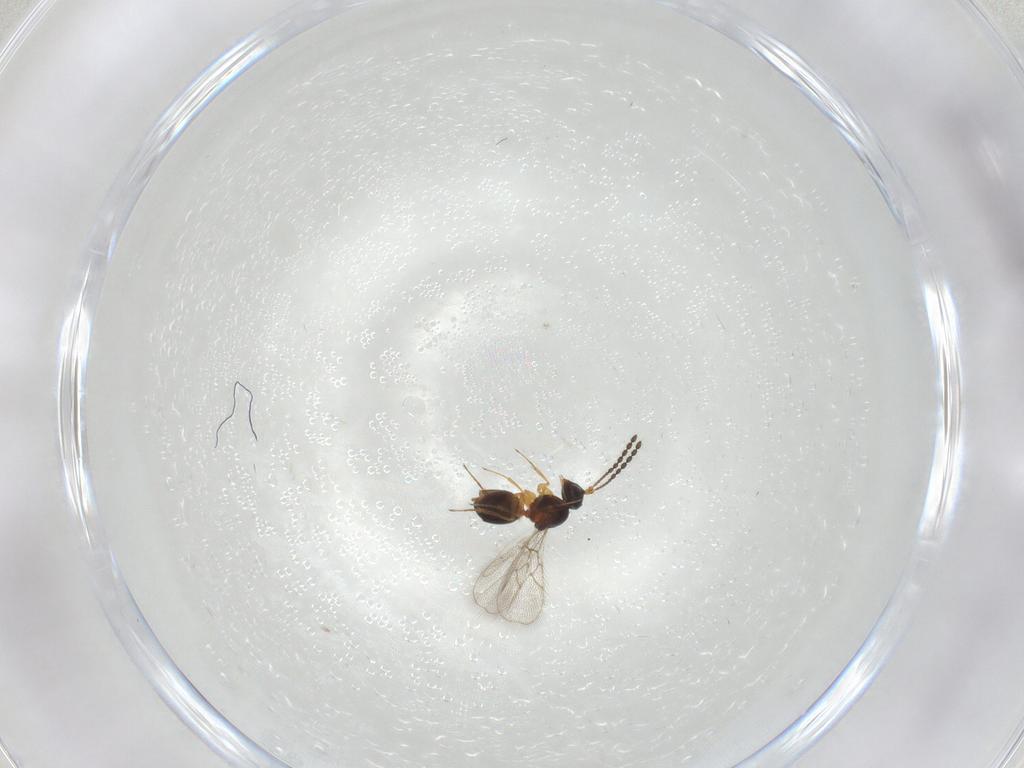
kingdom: Animalia
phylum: Arthropoda
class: Insecta
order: Hymenoptera
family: Figitidae
